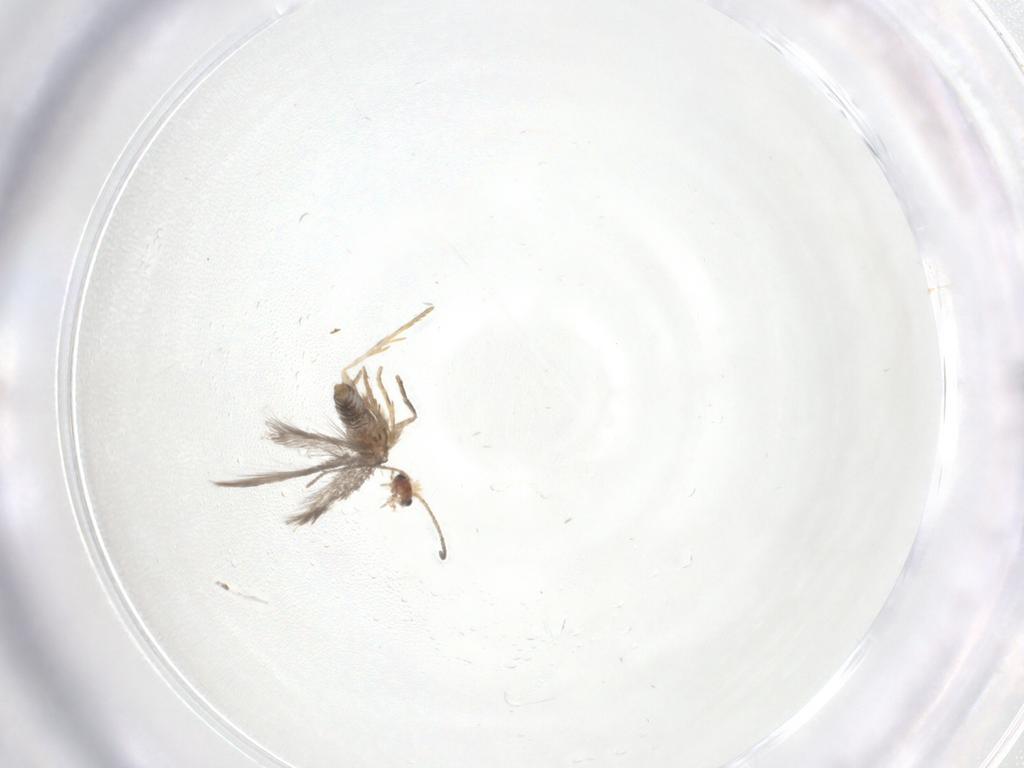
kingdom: Animalia
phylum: Arthropoda
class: Insecta
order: Lepidoptera
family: Nepticulidae
